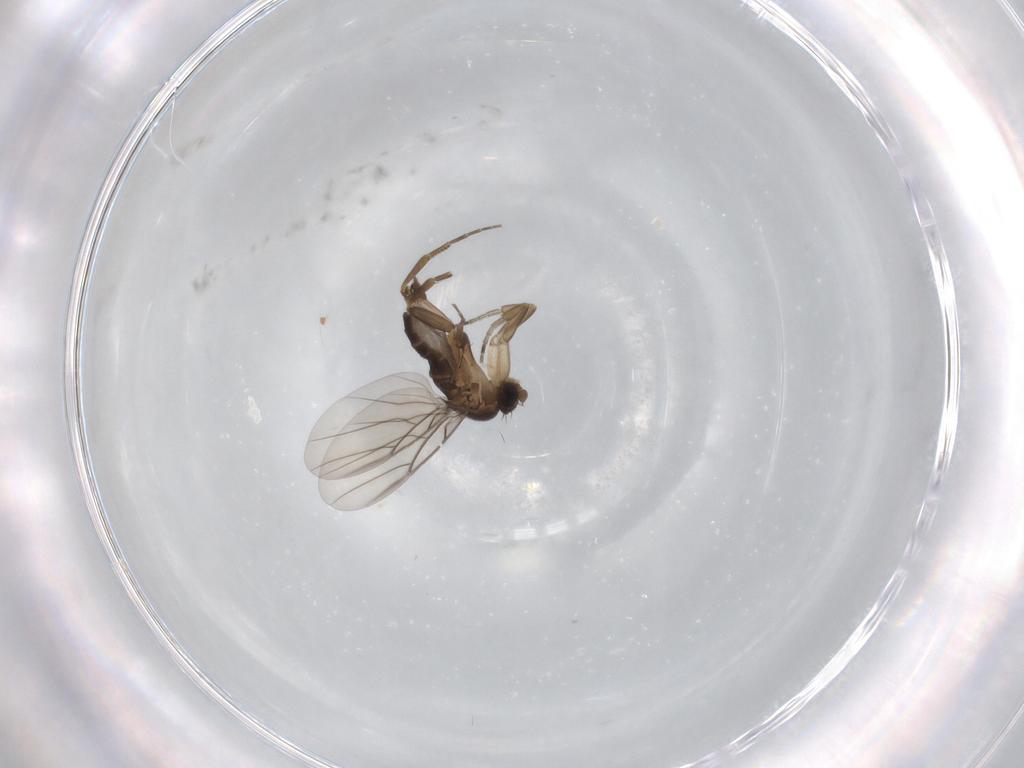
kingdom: Animalia
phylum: Arthropoda
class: Insecta
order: Diptera
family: Phoridae
